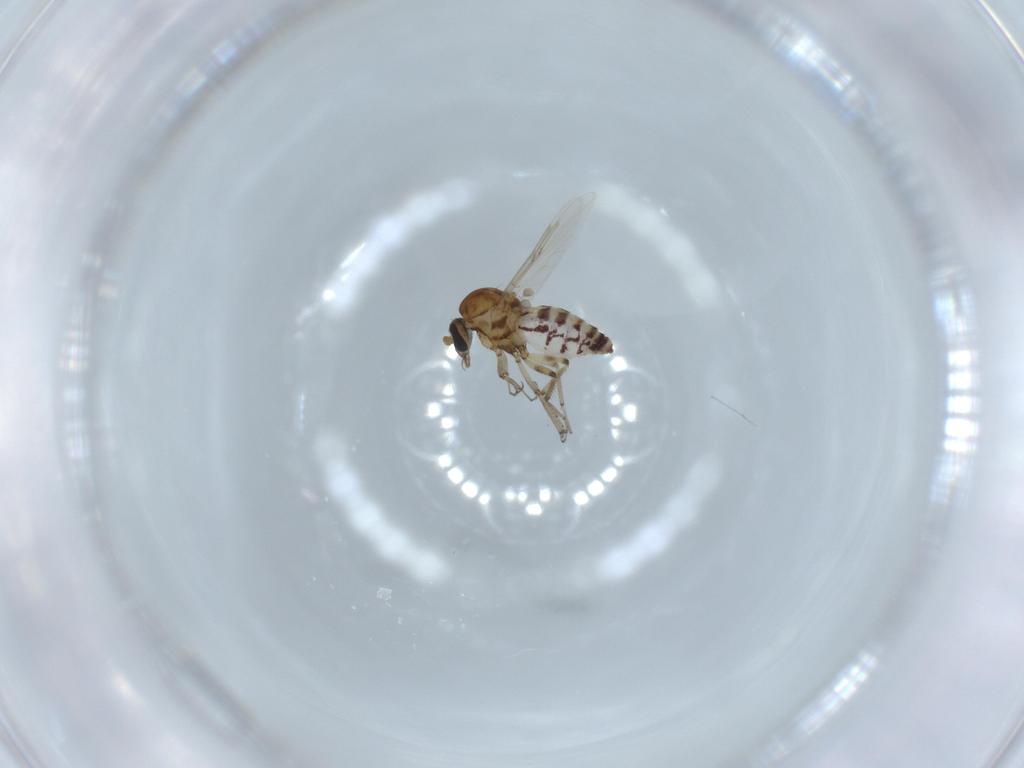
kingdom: Animalia
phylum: Arthropoda
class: Insecta
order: Diptera
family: Ceratopogonidae
